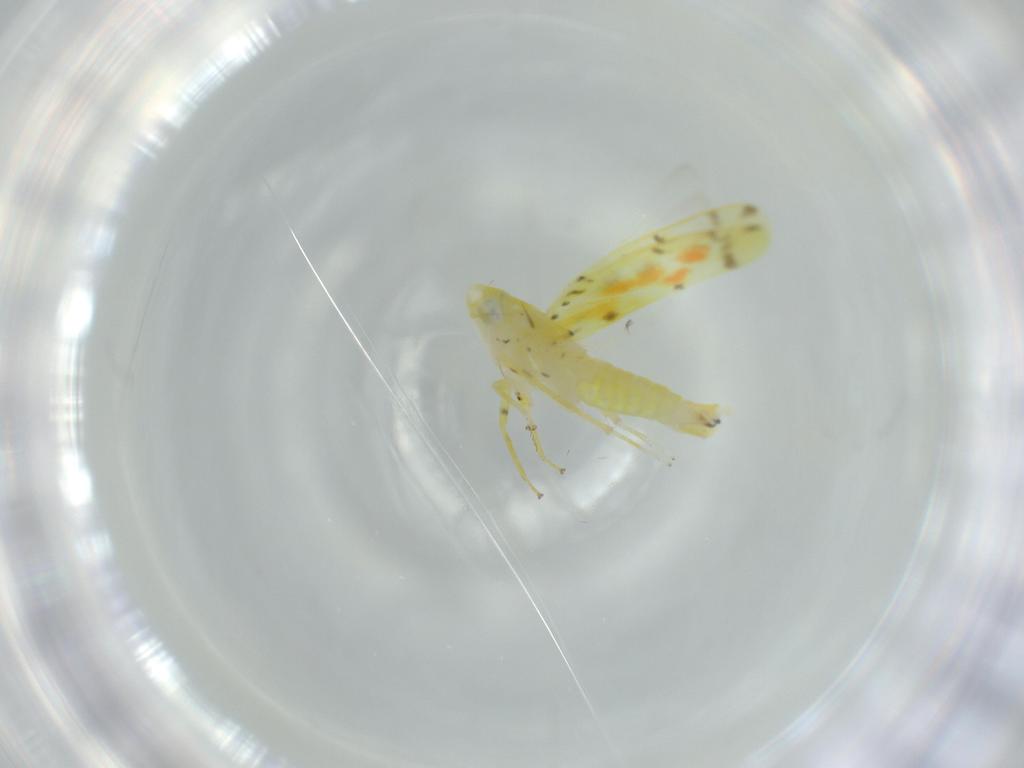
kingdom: Animalia
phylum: Arthropoda
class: Insecta
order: Hemiptera
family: Cicadellidae
